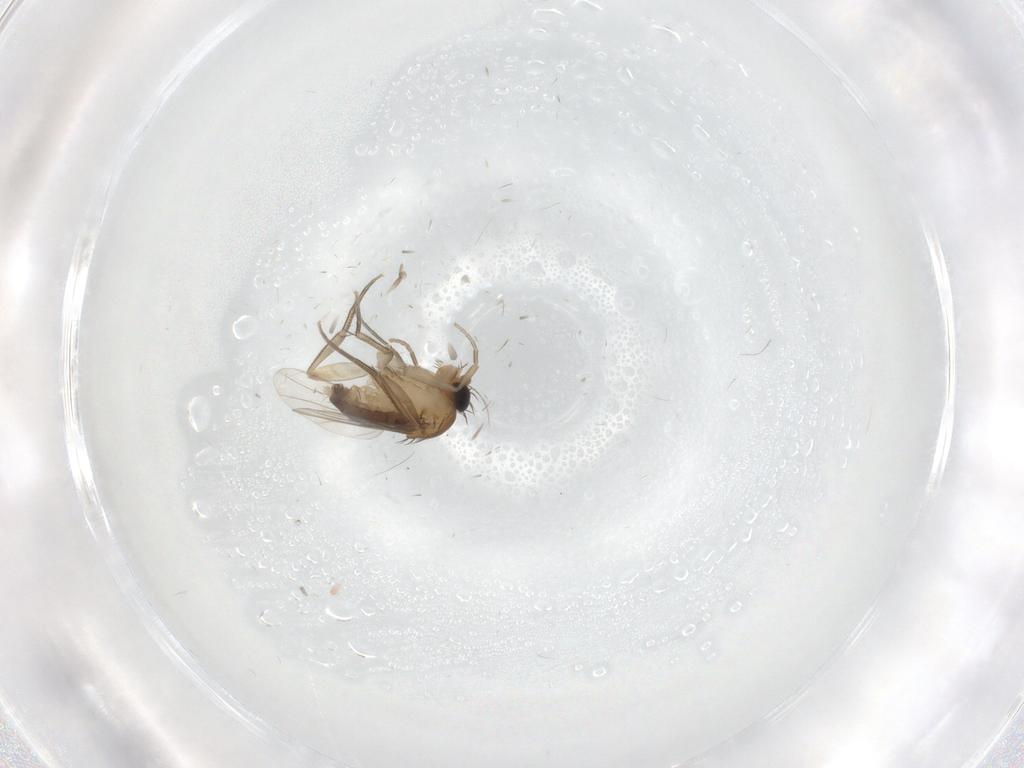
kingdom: Animalia
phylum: Arthropoda
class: Insecta
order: Diptera
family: Phoridae
